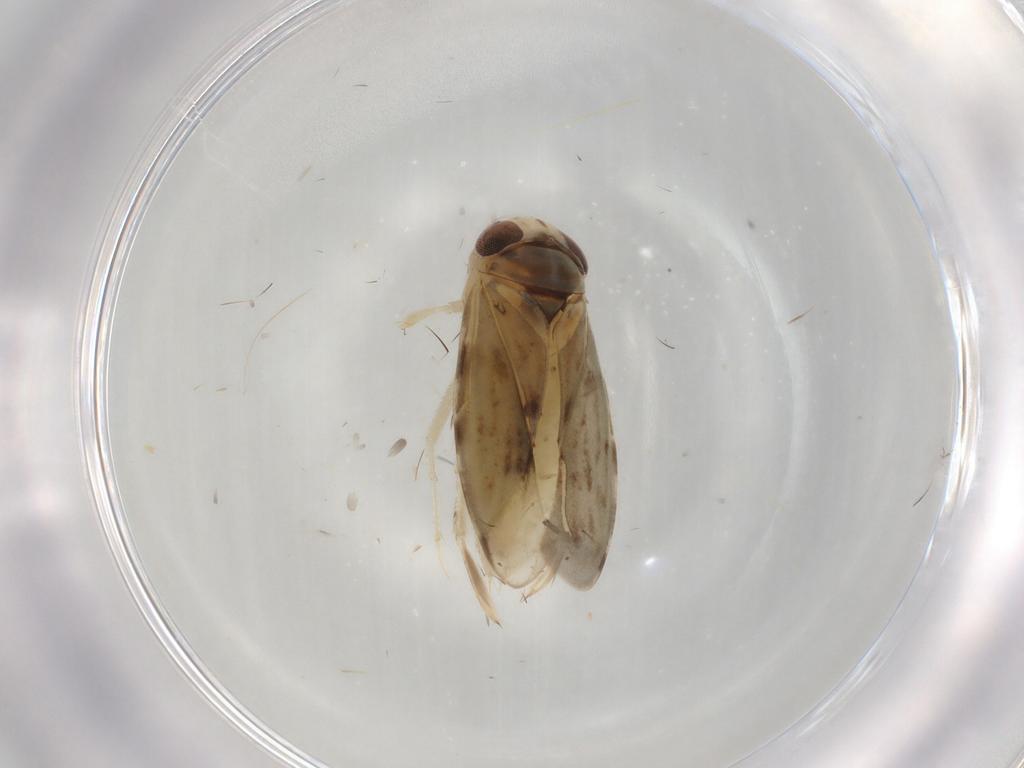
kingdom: Animalia
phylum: Arthropoda
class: Insecta
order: Hemiptera
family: Corixidae
